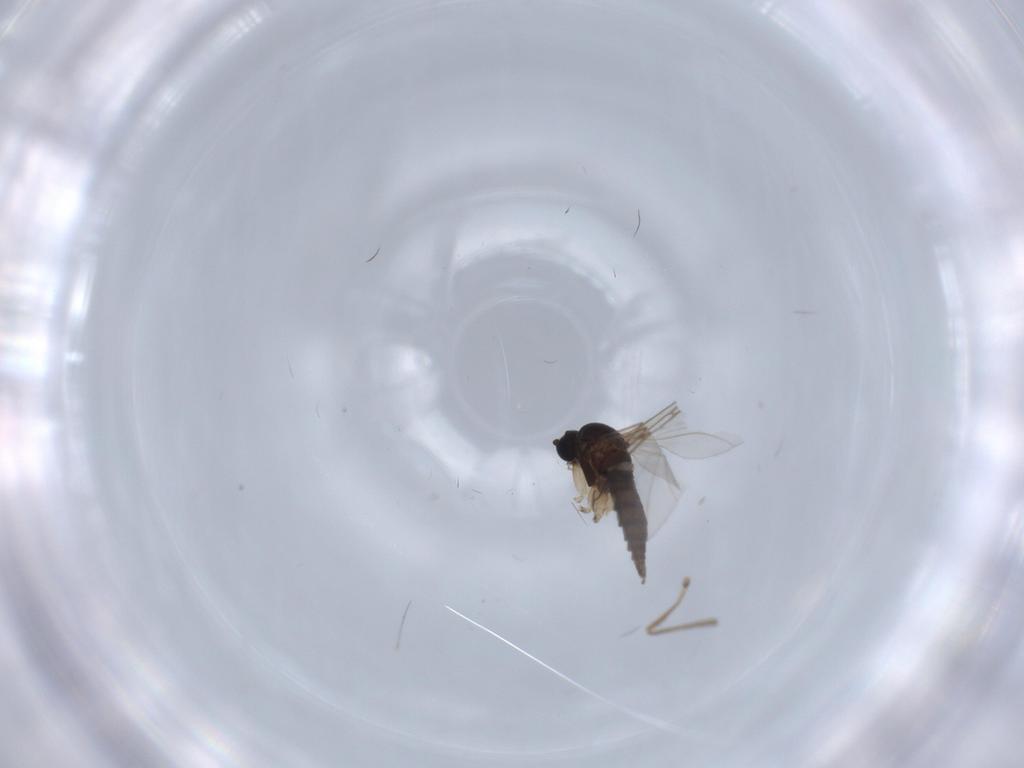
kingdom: Animalia
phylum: Arthropoda
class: Insecta
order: Diptera
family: Sciaridae
